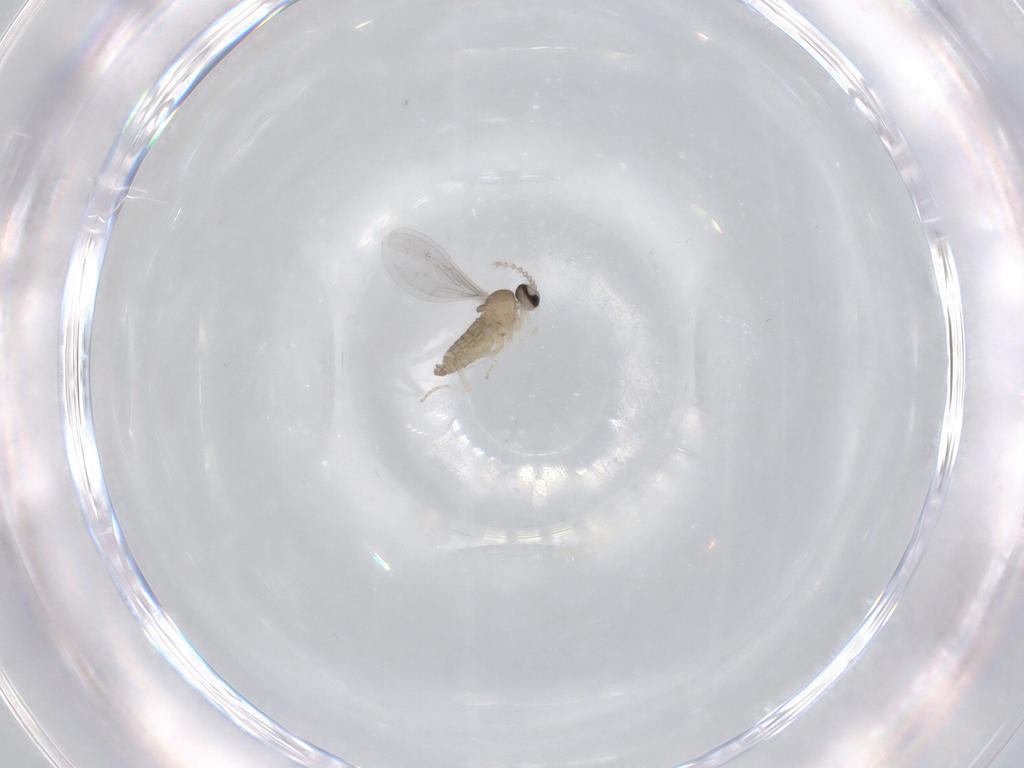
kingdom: Animalia
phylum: Arthropoda
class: Insecta
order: Diptera
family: Cecidomyiidae
